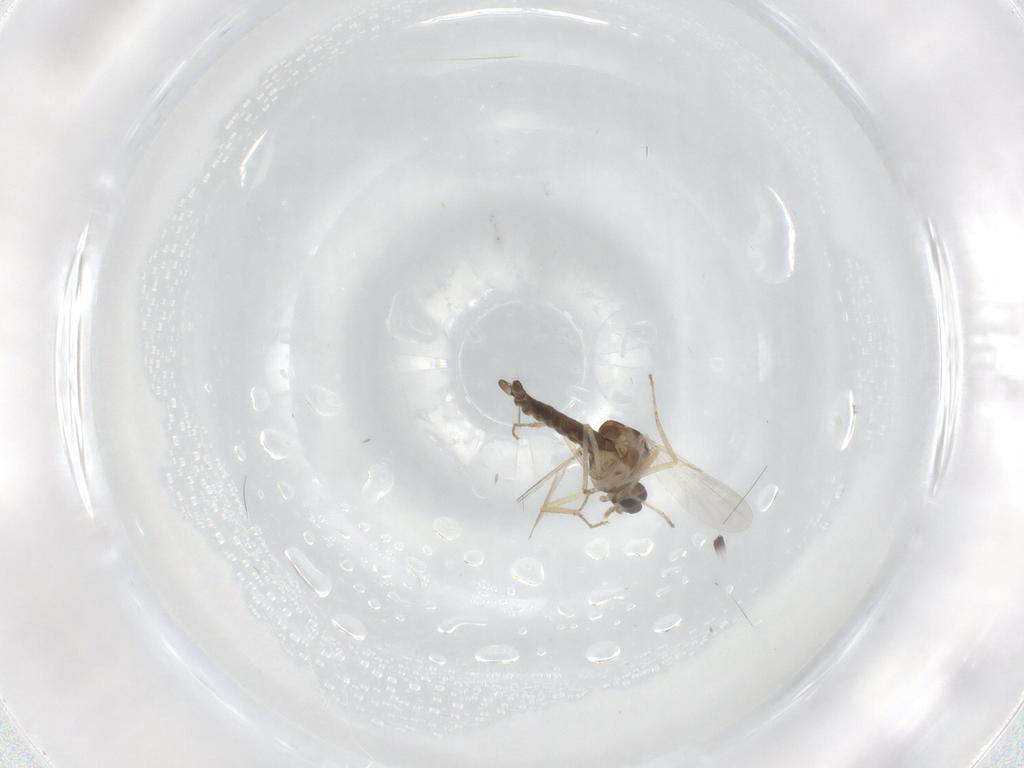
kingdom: Animalia
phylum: Arthropoda
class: Insecta
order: Diptera
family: Ceratopogonidae
